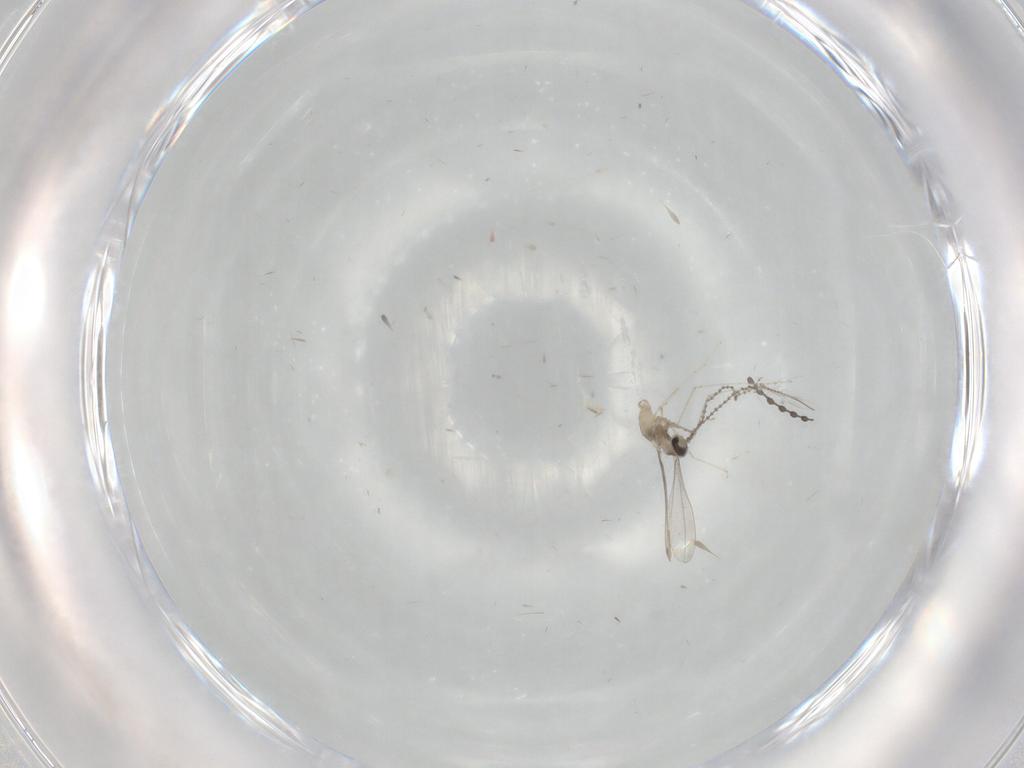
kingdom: Animalia
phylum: Arthropoda
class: Insecta
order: Diptera
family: Cecidomyiidae
